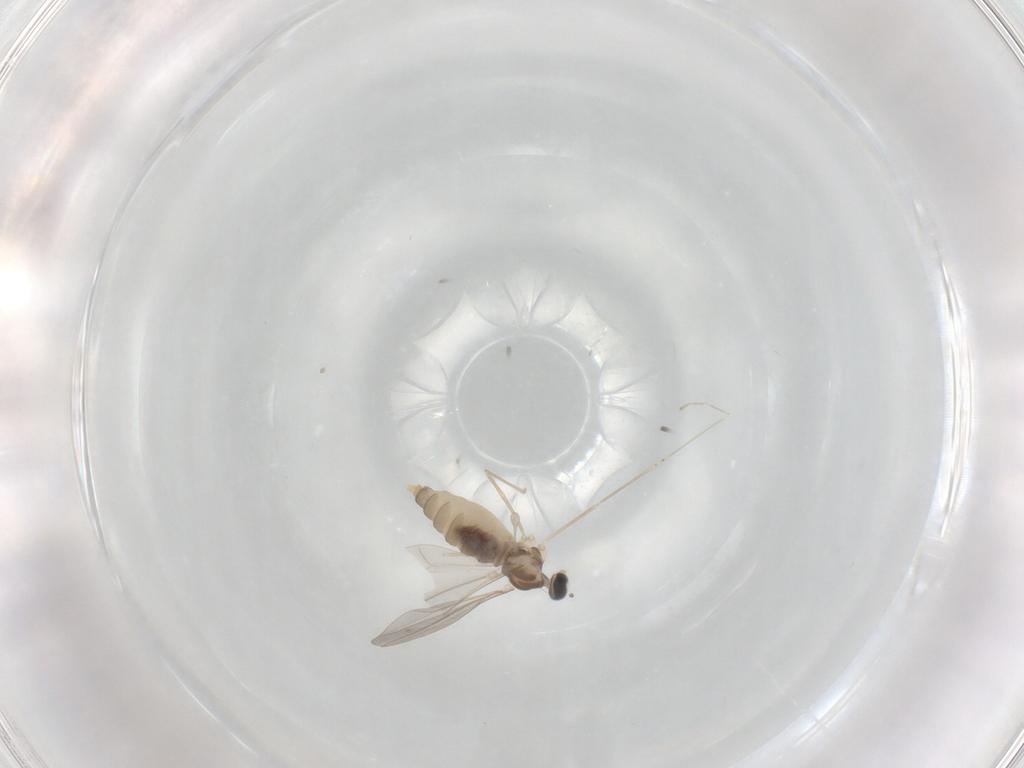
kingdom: Animalia
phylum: Arthropoda
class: Insecta
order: Diptera
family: Cecidomyiidae
